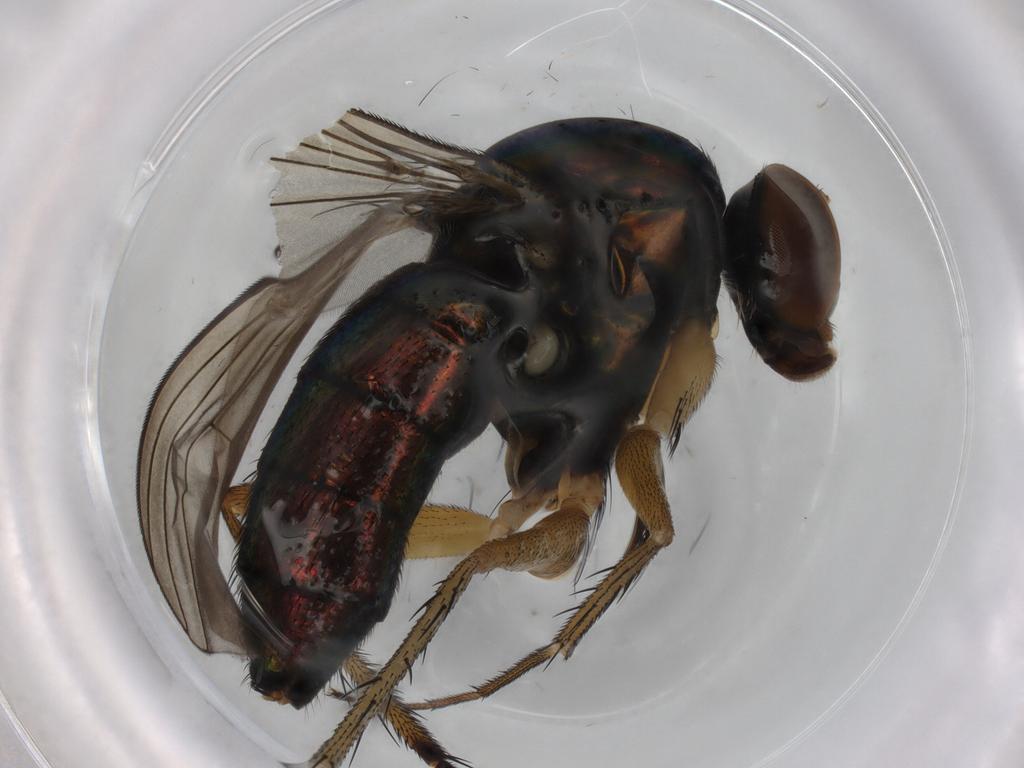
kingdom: Animalia
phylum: Arthropoda
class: Insecta
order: Diptera
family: Dolichopodidae
